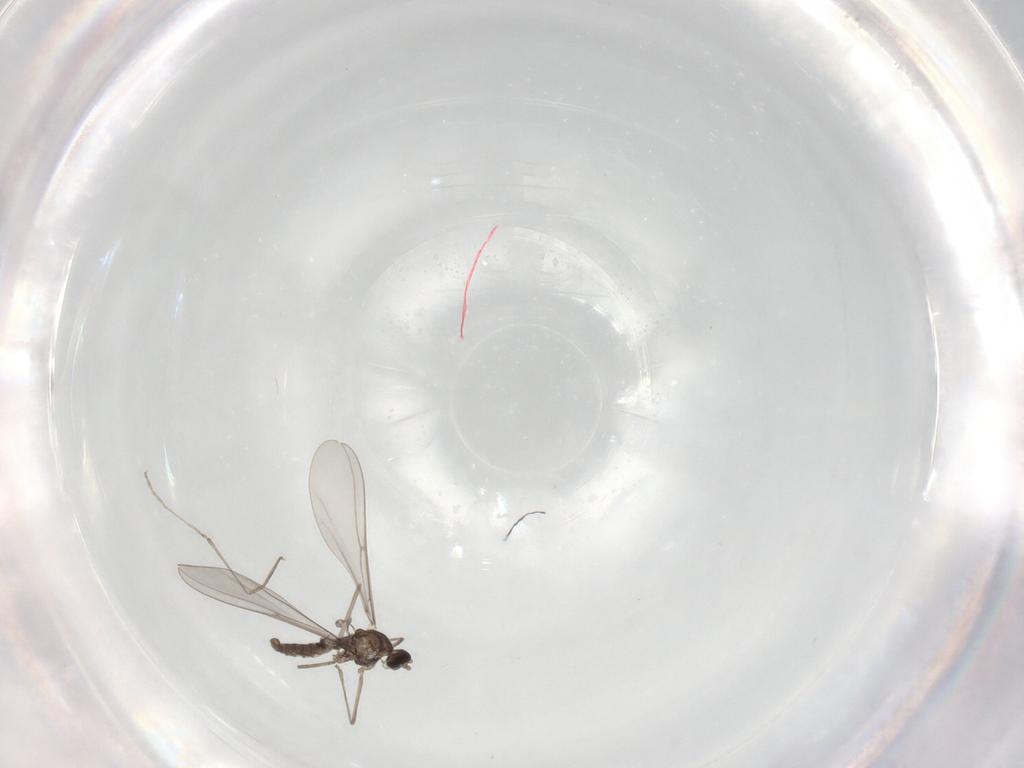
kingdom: Animalia
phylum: Arthropoda
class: Insecta
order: Diptera
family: Cecidomyiidae
